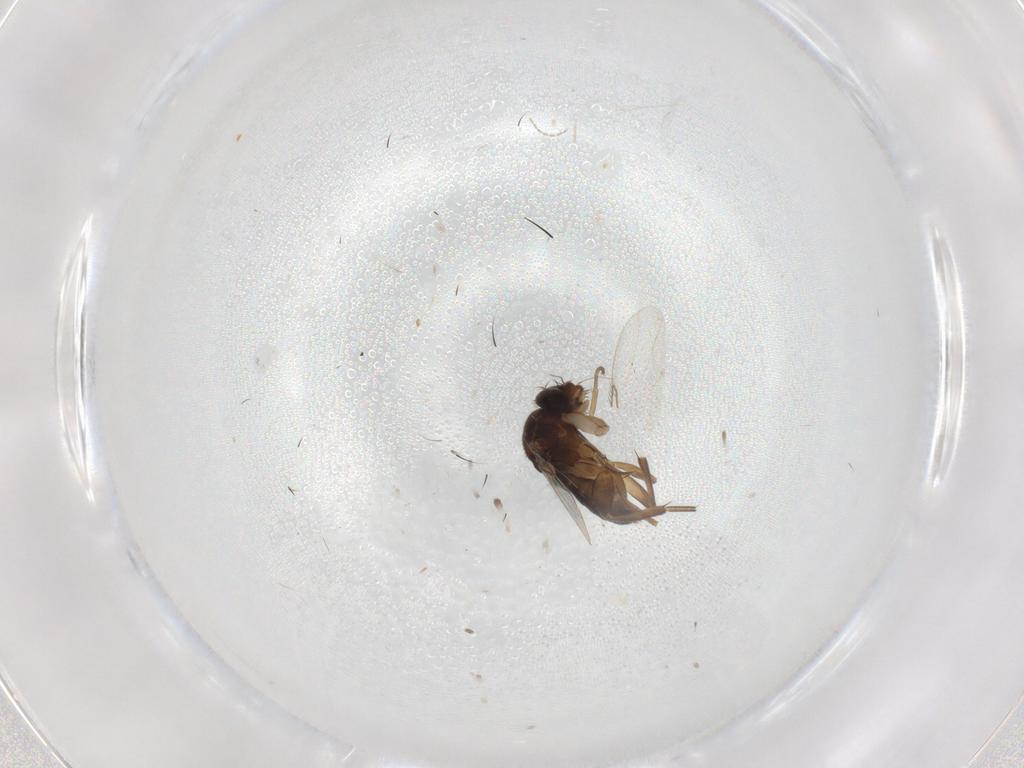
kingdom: Animalia
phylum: Arthropoda
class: Insecta
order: Diptera
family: Phoridae
